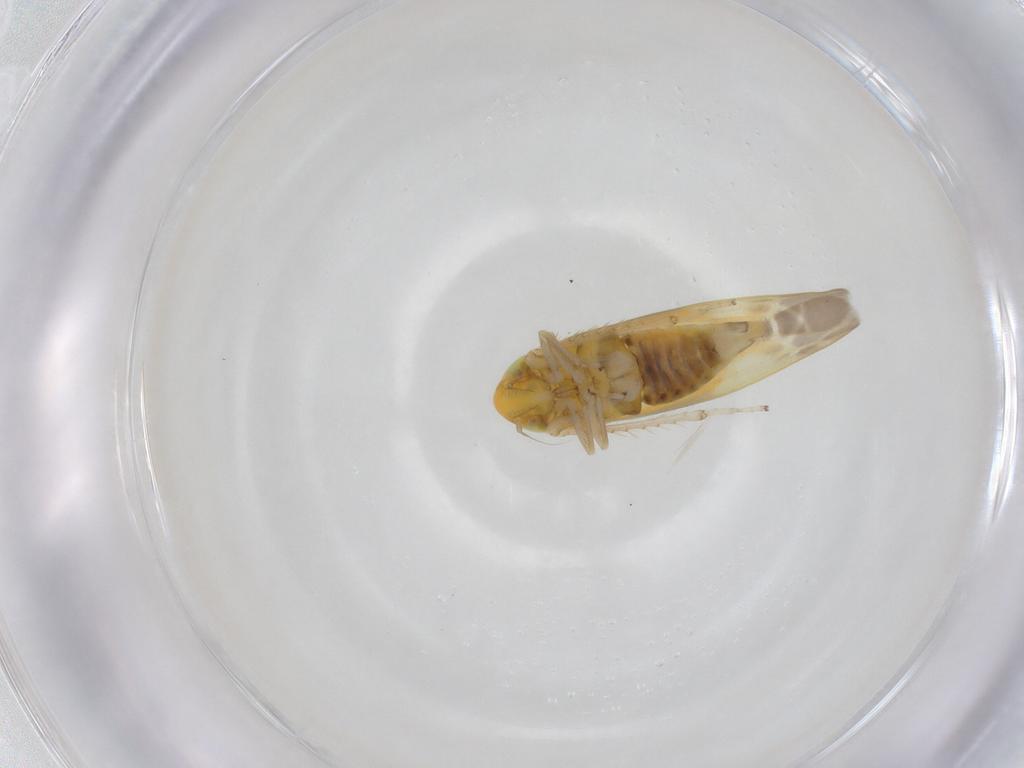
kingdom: Animalia
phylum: Arthropoda
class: Insecta
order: Hemiptera
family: Cicadellidae
